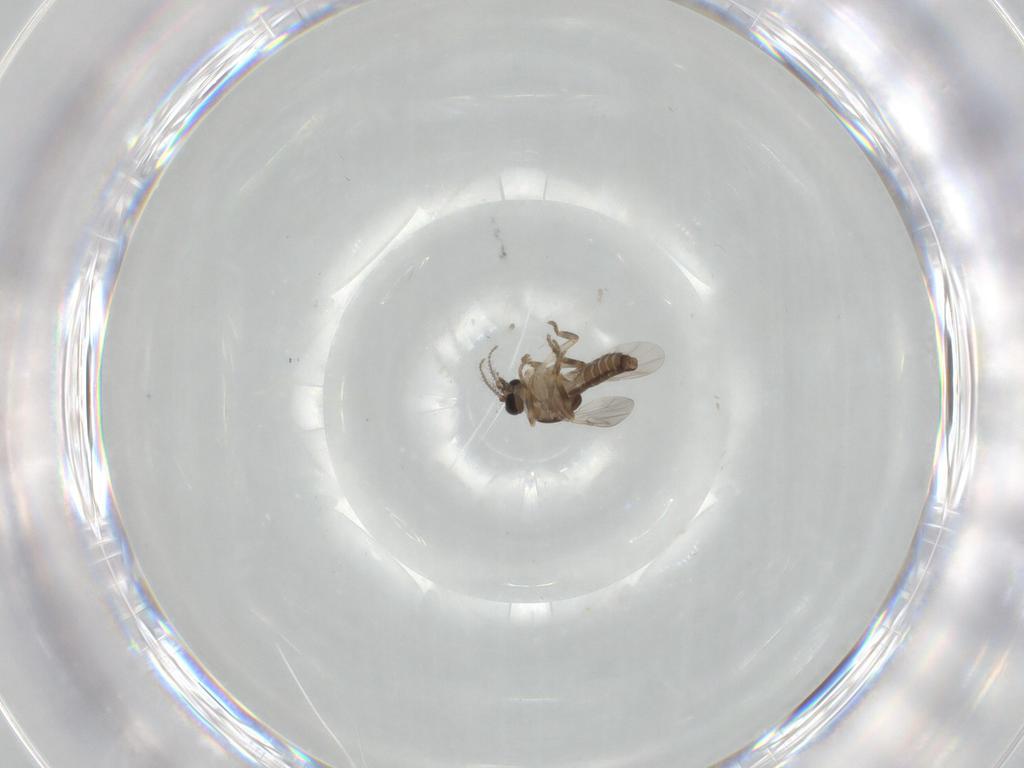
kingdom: Animalia
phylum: Arthropoda
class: Insecta
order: Diptera
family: Ceratopogonidae
